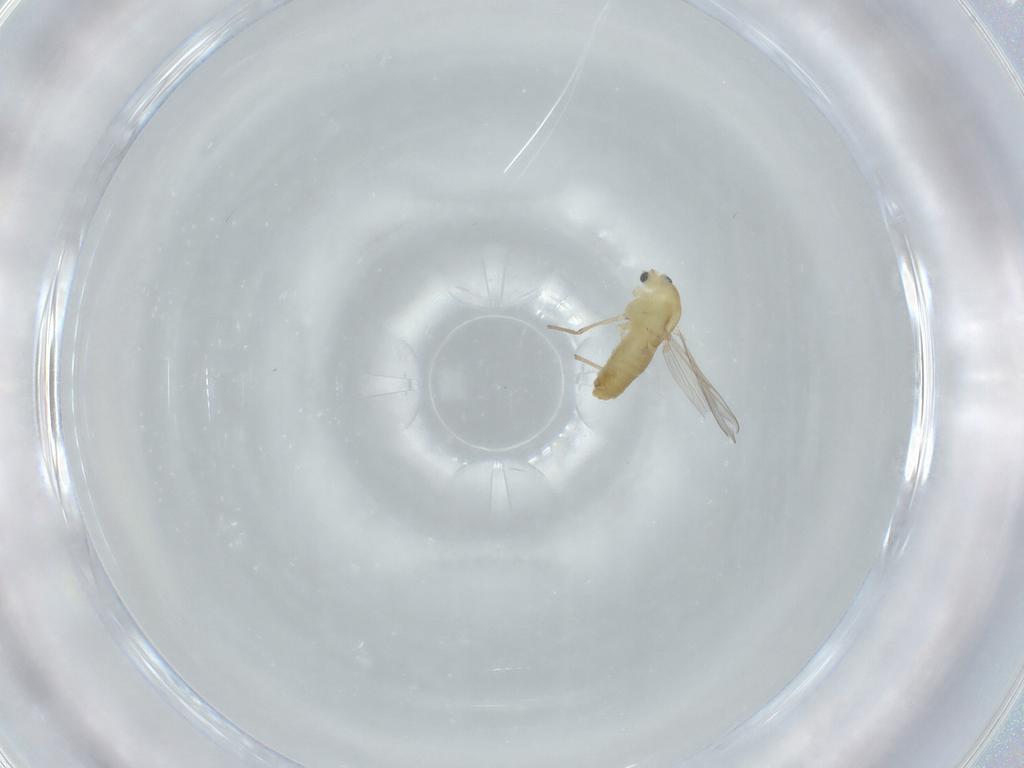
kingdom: Animalia
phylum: Arthropoda
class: Insecta
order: Diptera
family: Chironomidae
